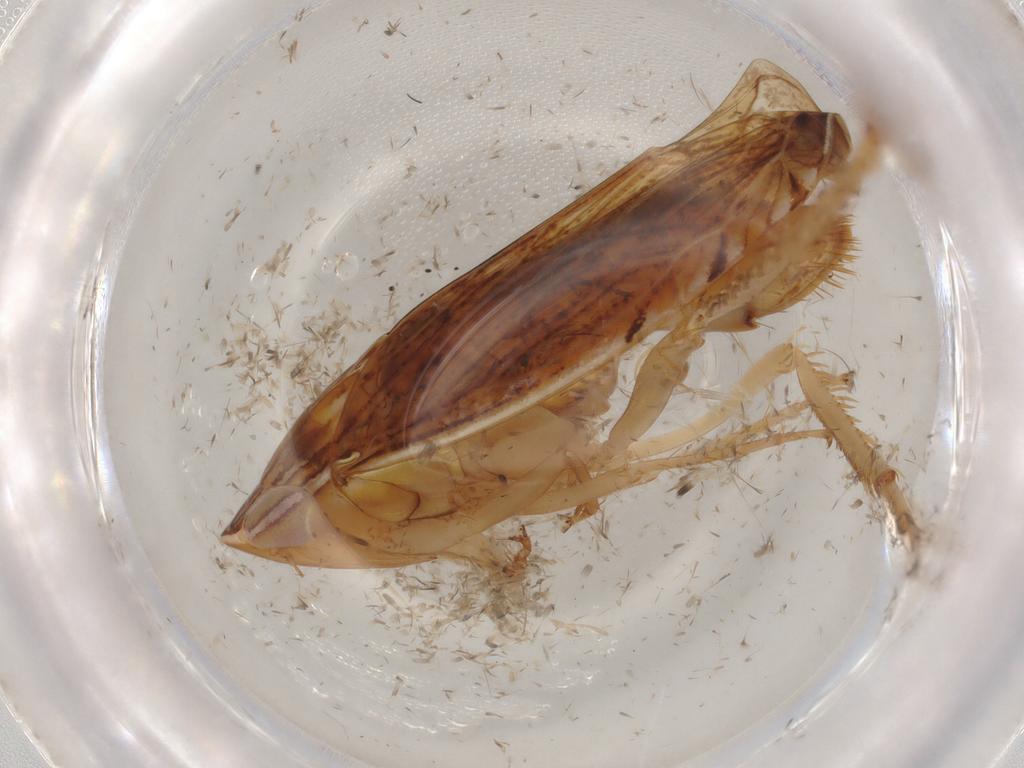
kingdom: Animalia
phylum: Arthropoda
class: Insecta
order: Hemiptera
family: Cicadellidae
